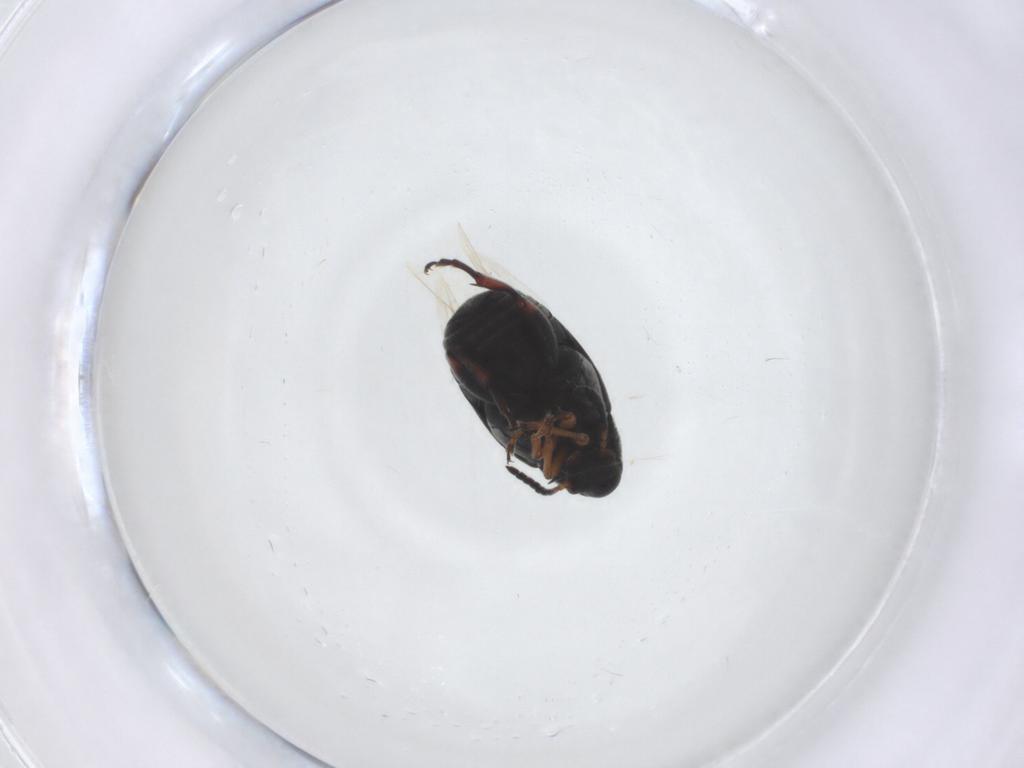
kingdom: Animalia
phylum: Arthropoda
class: Insecta
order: Coleoptera
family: Chrysomelidae
